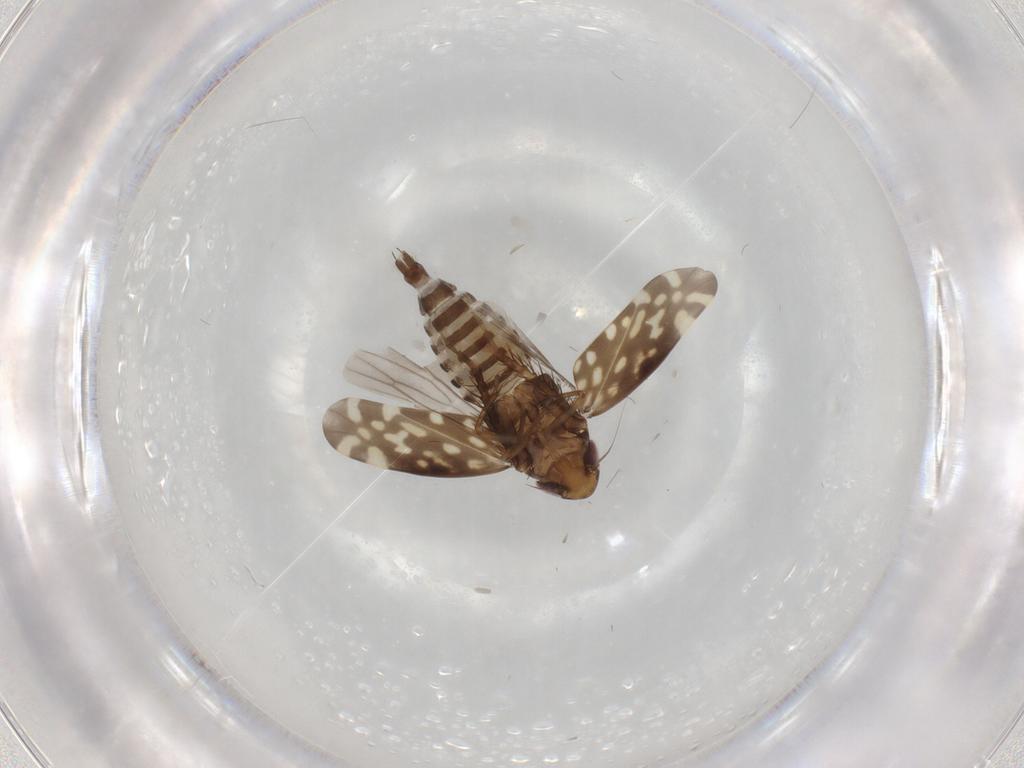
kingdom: Animalia
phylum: Arthropoda
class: Insecta
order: Hemiptera
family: Cicadellidae
